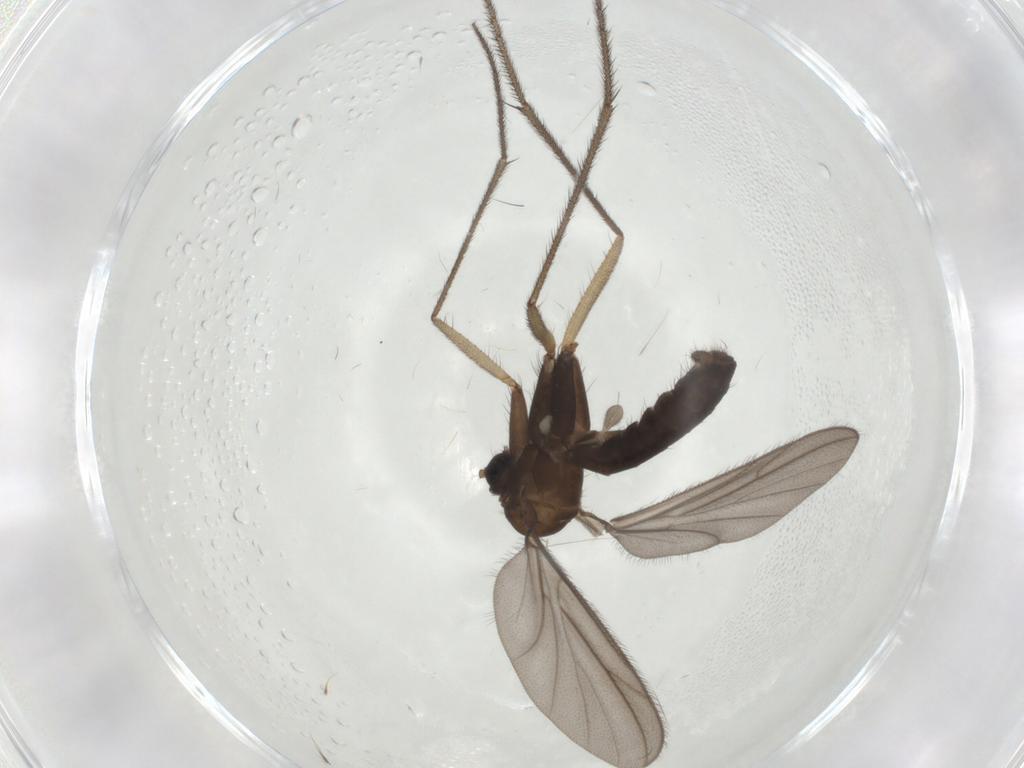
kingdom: Animalia
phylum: Arthropoda
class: Insecta
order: Diptera
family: Ditomyiidae
